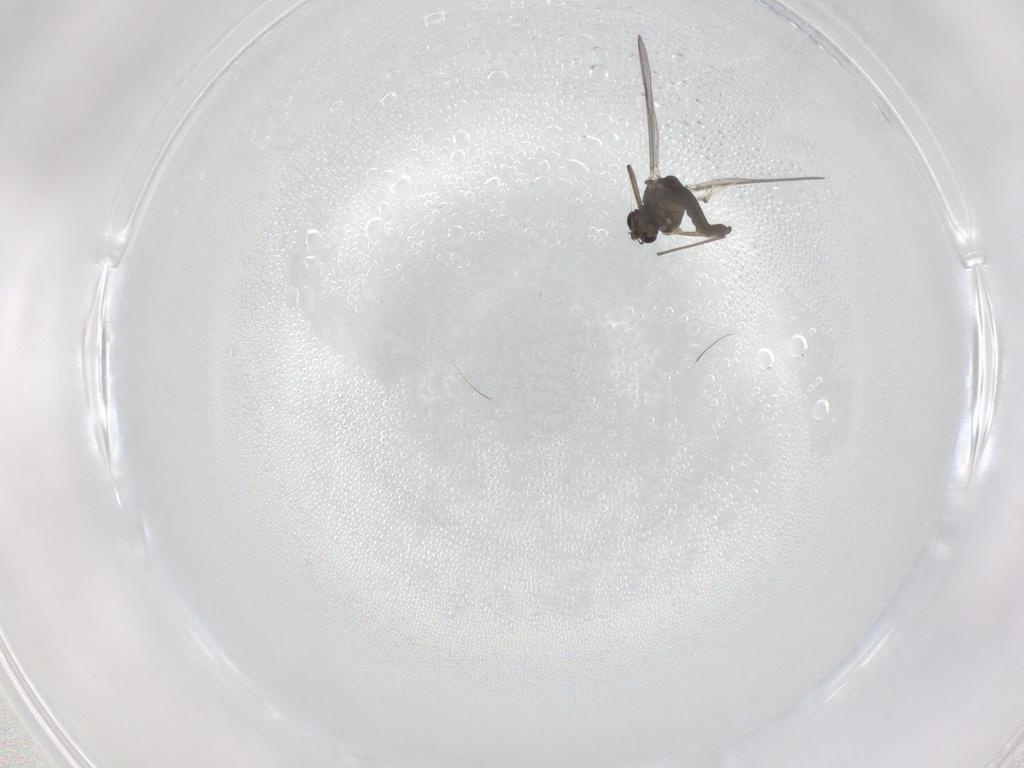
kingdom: Animalia
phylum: Arthropoda
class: Insecta
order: Diptera
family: Chironomidae
